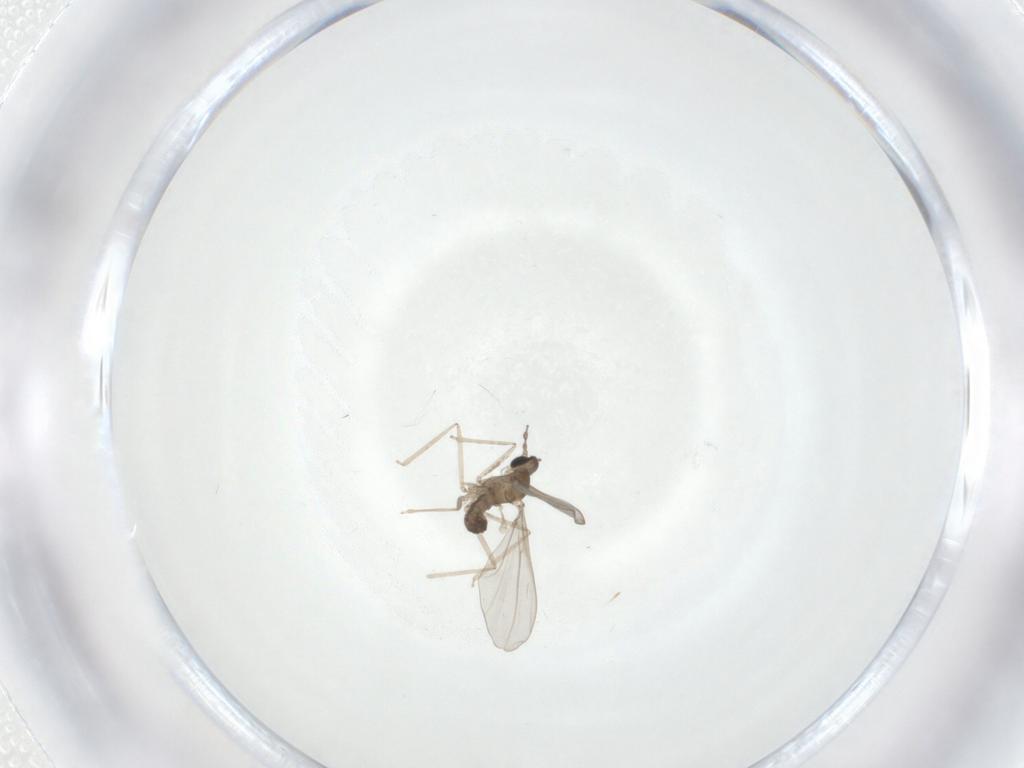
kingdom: Animalia
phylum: Arthropoda
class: Insecta
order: Diptera
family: Cecidomyiidae
